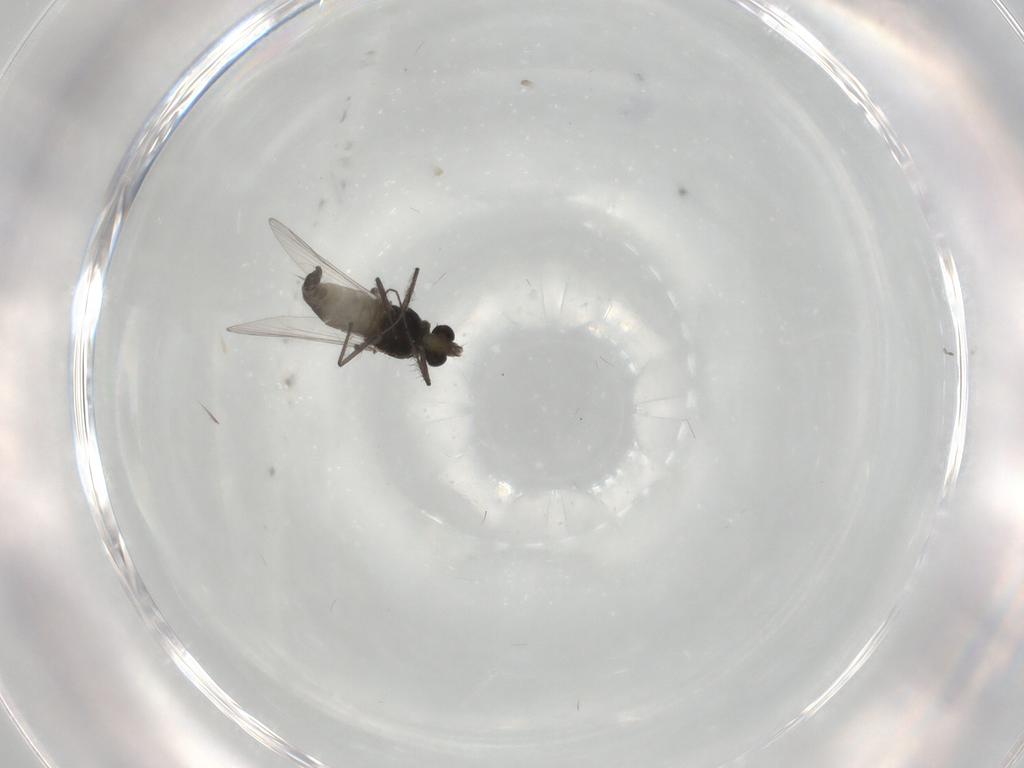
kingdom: Animalia
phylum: Arthropoda
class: Insecta
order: Diptera
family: Chironomidae
